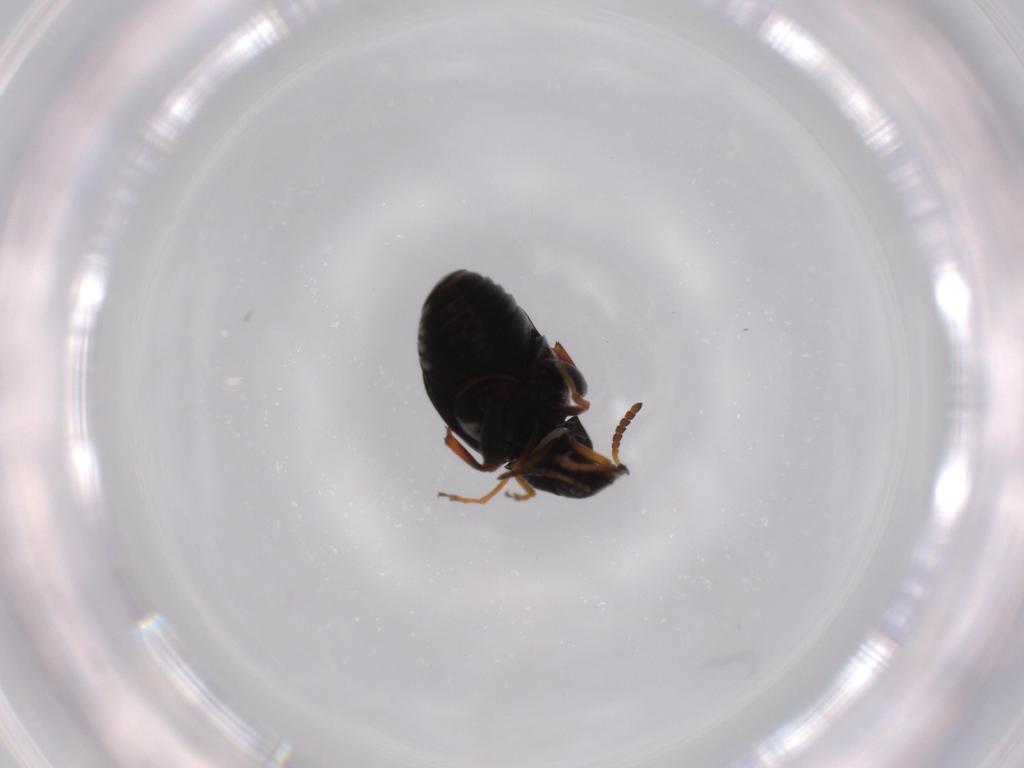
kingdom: Animalia
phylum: Arthropoda
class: Insecta
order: Coleoptera
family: Chrysomelidae
